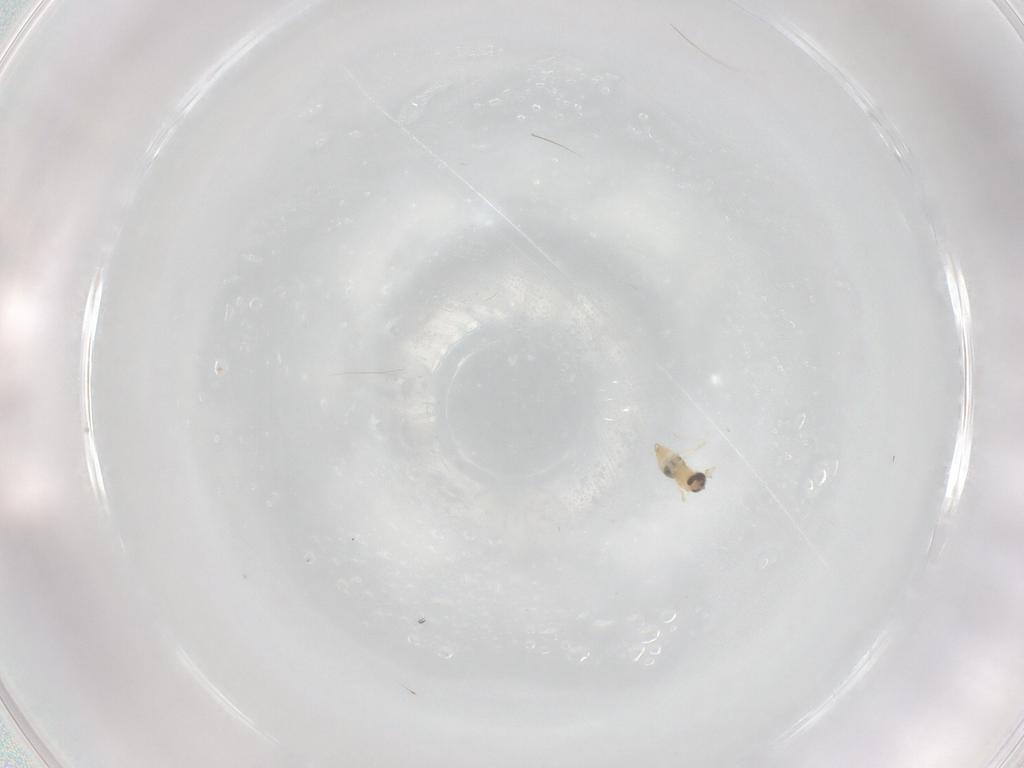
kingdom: Animalia
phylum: Arthropoda
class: Insecta
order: Diptera
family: Cecidomyiidae
